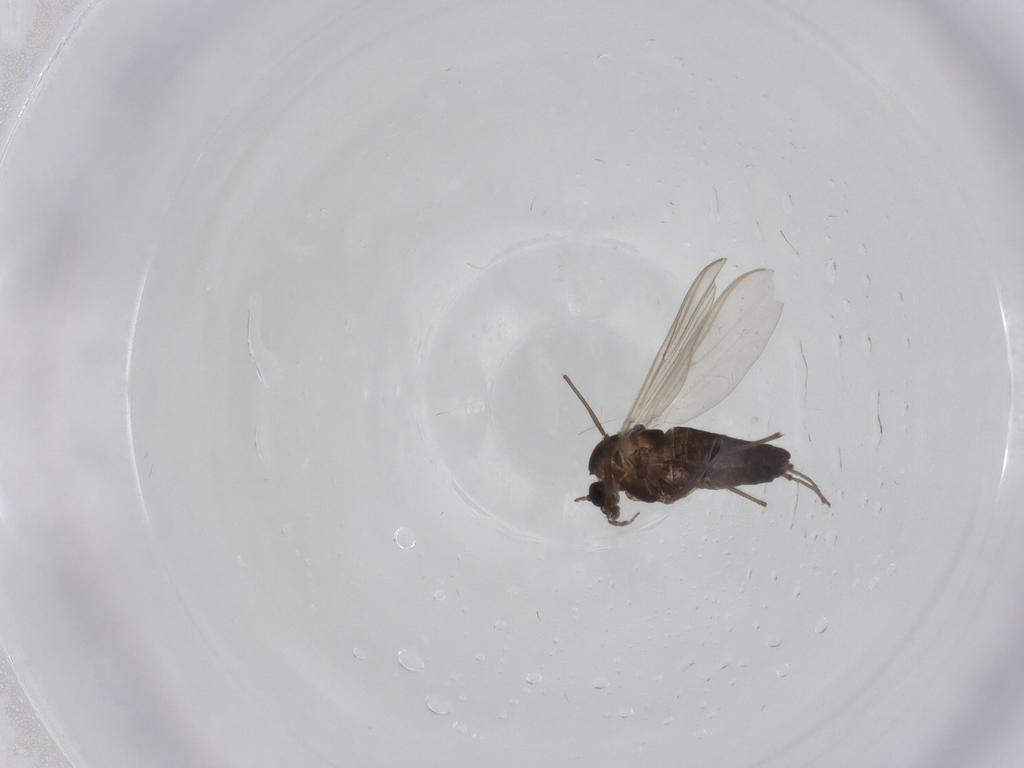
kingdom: Animalia
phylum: Arthropoda
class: Insecta
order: Diptera
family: Chironomidae
